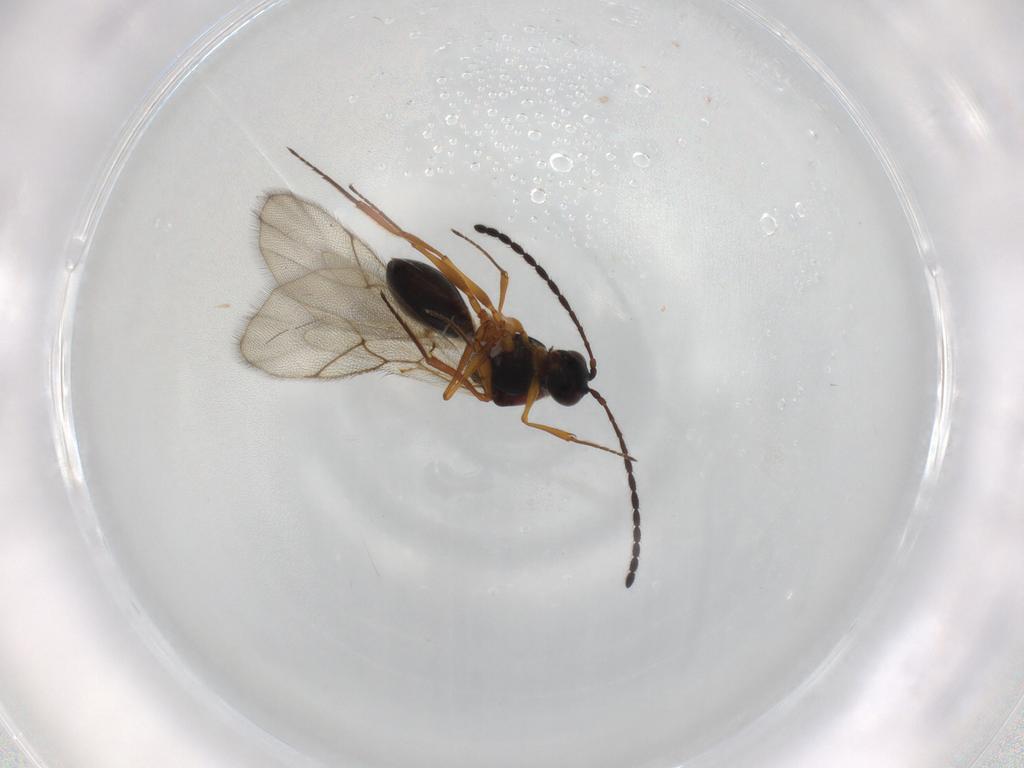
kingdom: Animalia
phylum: Arthropoda
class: Insecta
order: Hymenoptera
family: Figitidae
